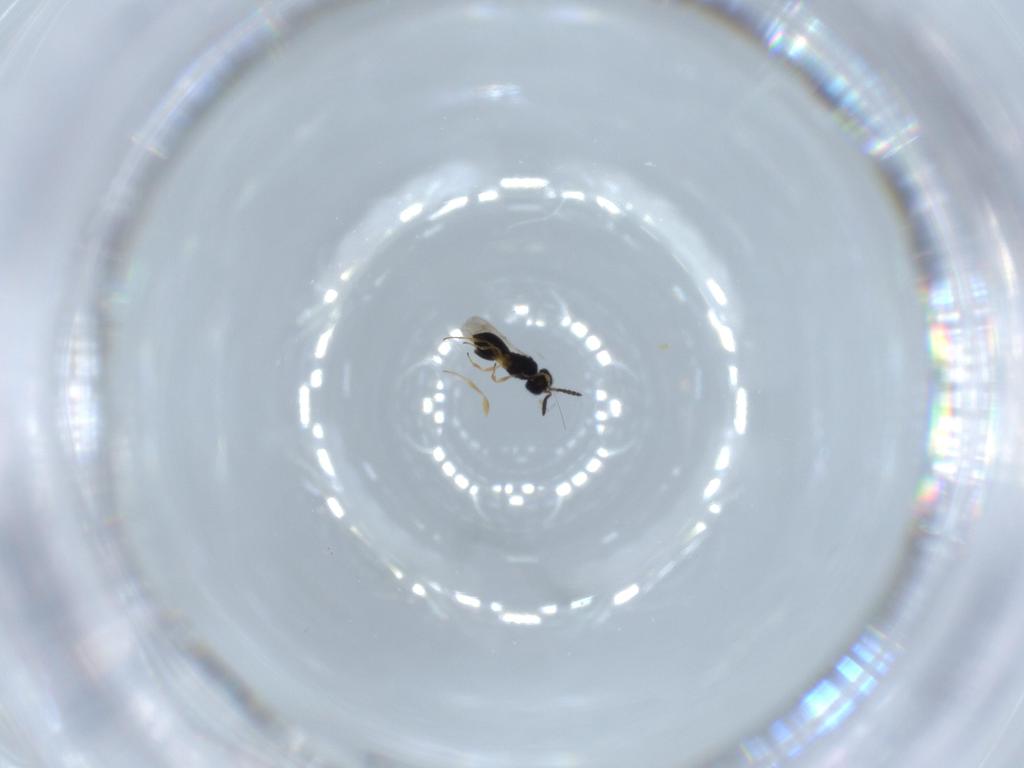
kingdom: Animalia
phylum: Arthropoda
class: Insecta
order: Hymenoptera
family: Scelionidae
